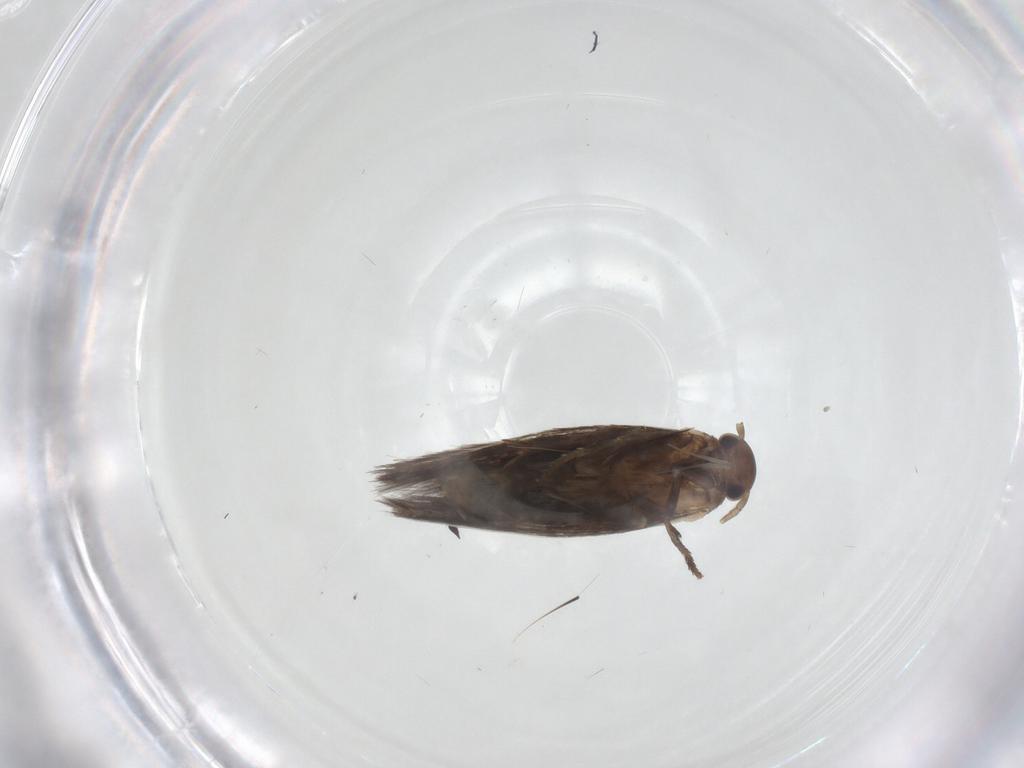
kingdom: Animalia
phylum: Arthropoda
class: Insecta
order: Lepidoptera
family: Elachistidae
